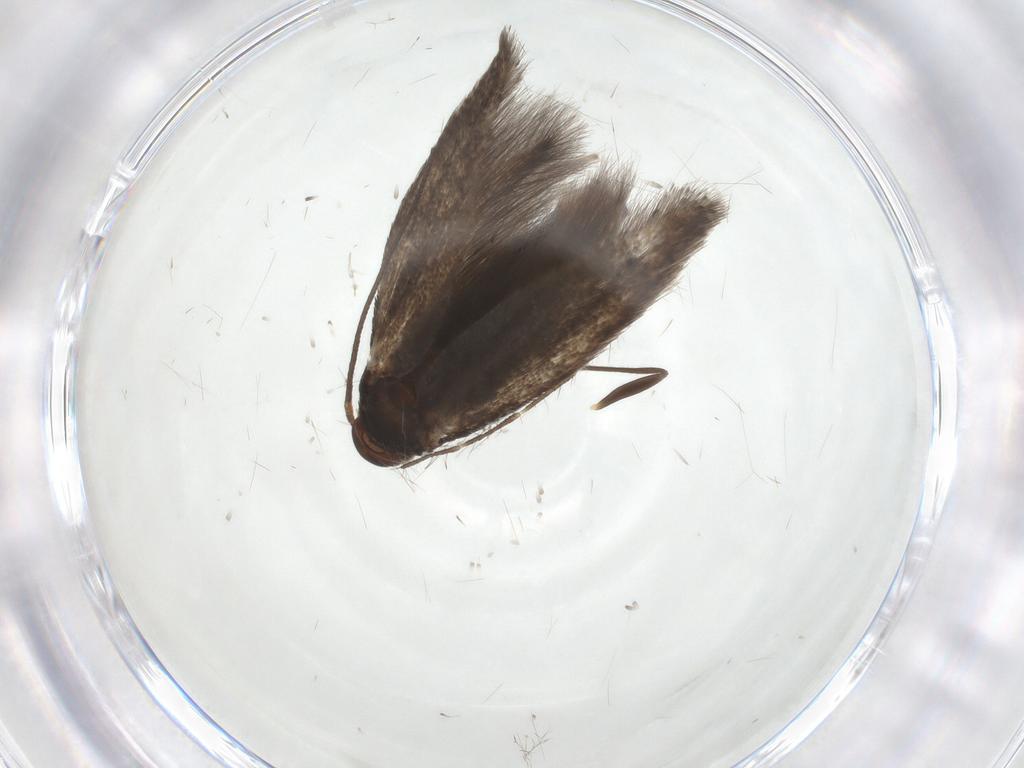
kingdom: Animalia
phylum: Arthropoda
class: Insecta
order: Lepidoptera
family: Elachistidae
